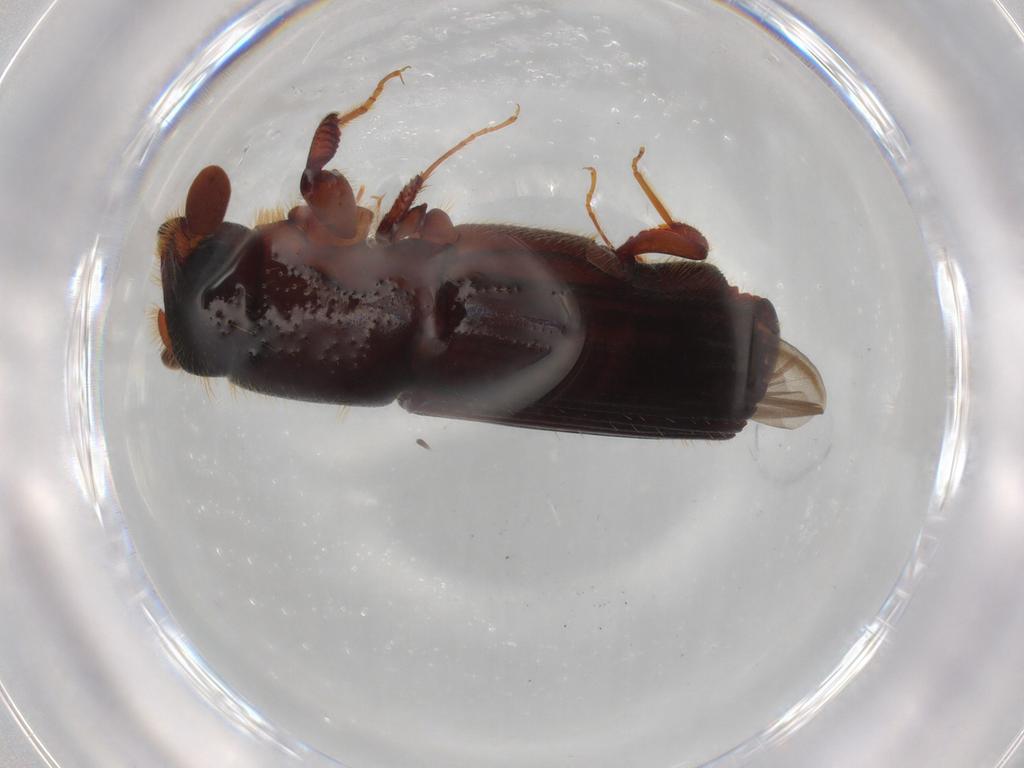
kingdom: Animalia
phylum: Arthropoda
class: Insecta
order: Coleoptera
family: Curculionidae
